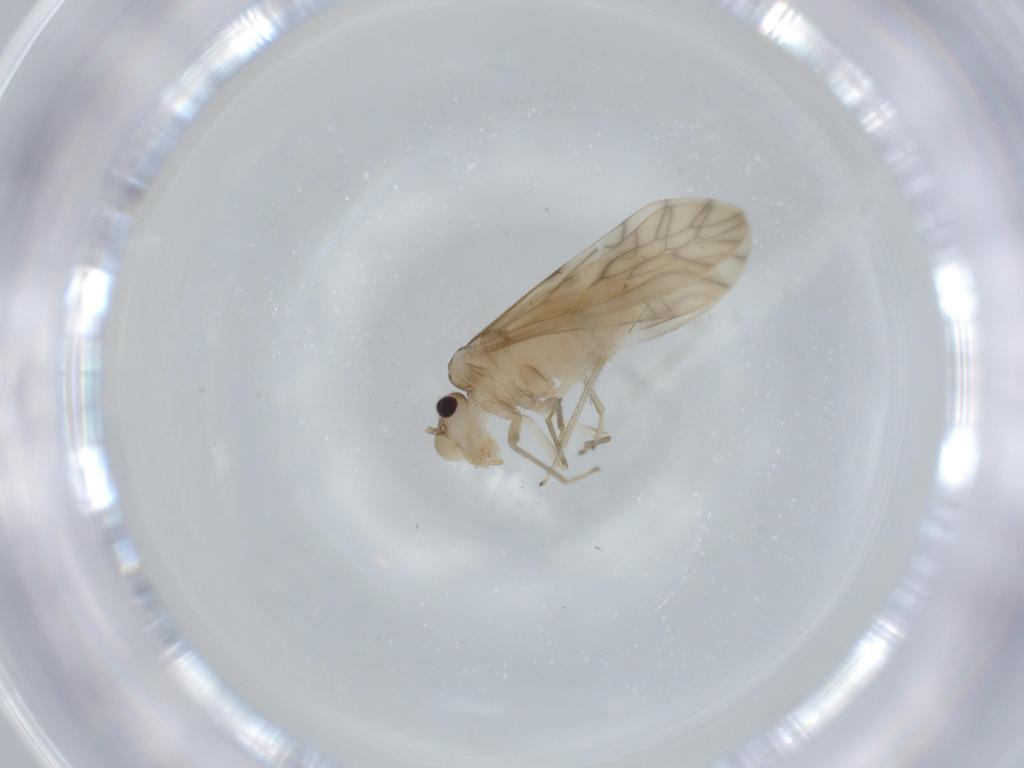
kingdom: Animalia
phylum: Arthropoda
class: Insecta
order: Psocodea
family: Caeciliusidae
